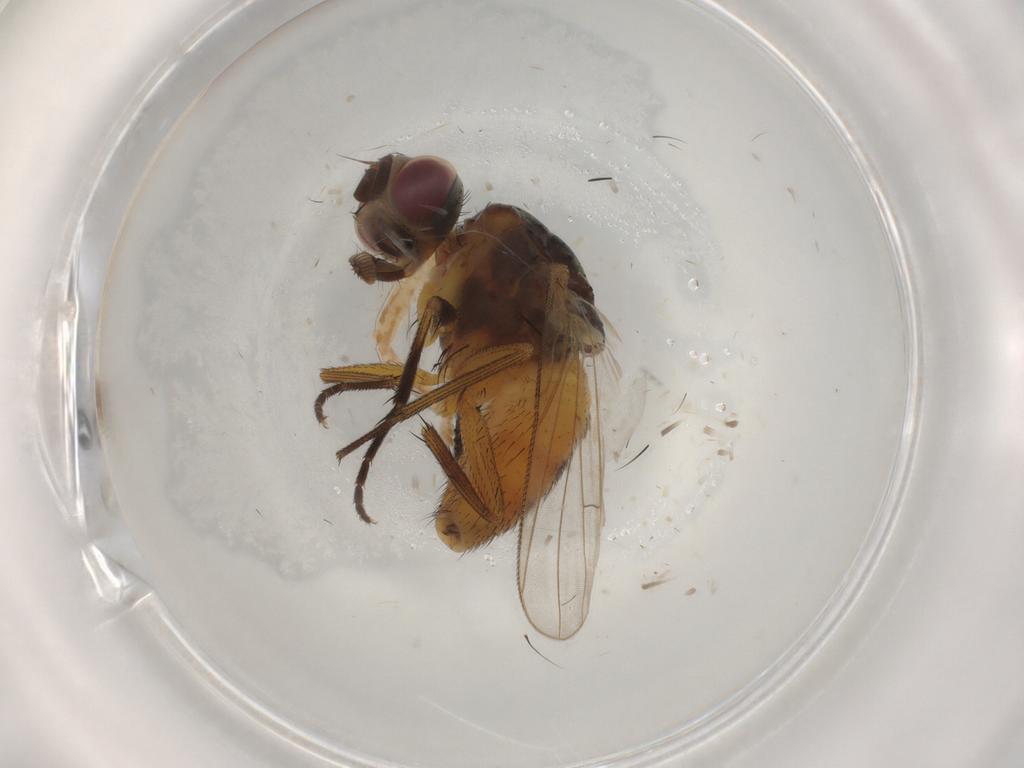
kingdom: Animalia
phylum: Arthropoda
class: Insecta
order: Diptera
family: Muscidae
